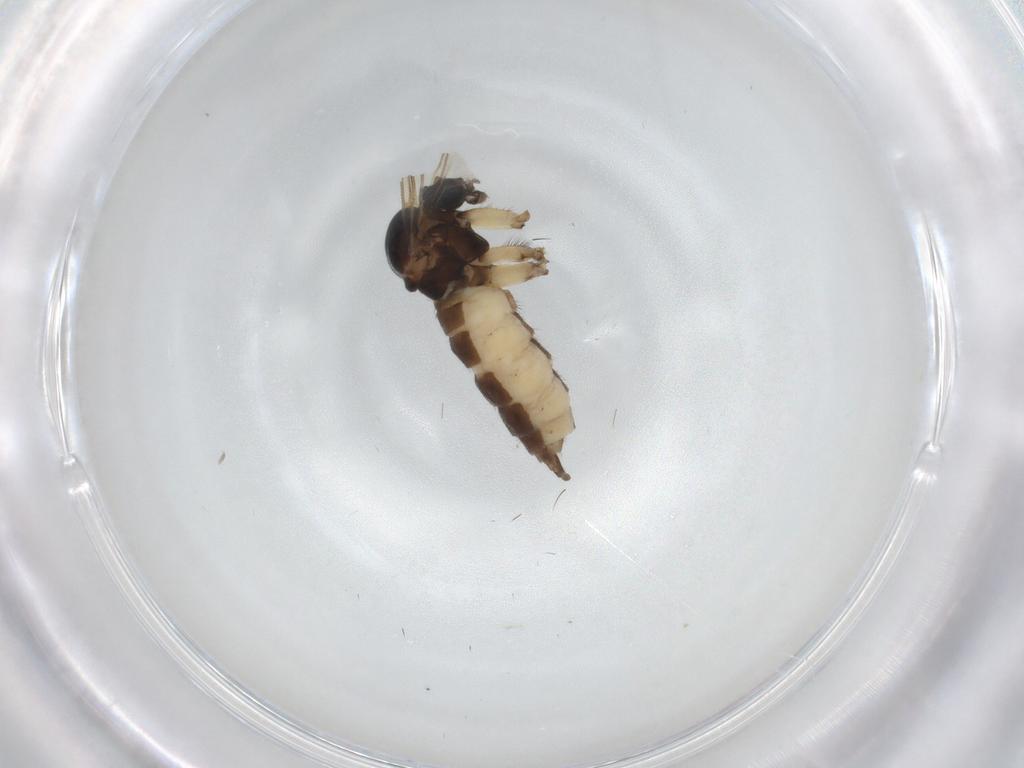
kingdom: Animalia
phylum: Arthropoda
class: Insecta
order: Diptera
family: Sciaridae
